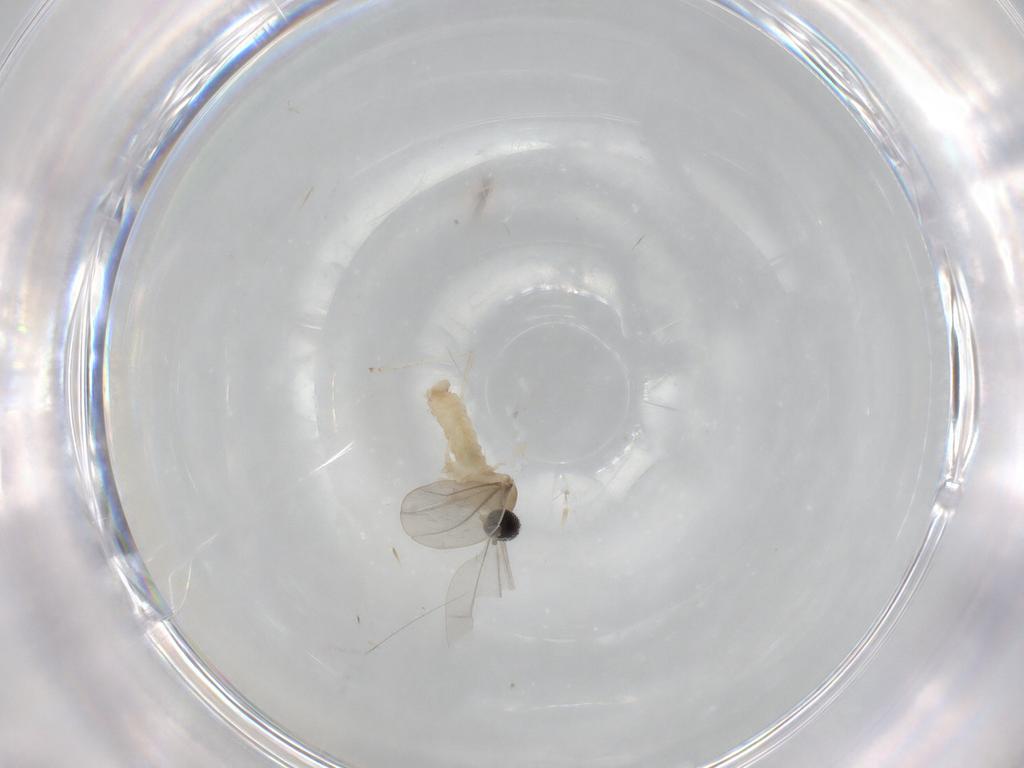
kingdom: Animalia
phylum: Arthropoda
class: Insecta
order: Diptera
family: Cecidomyiidae
